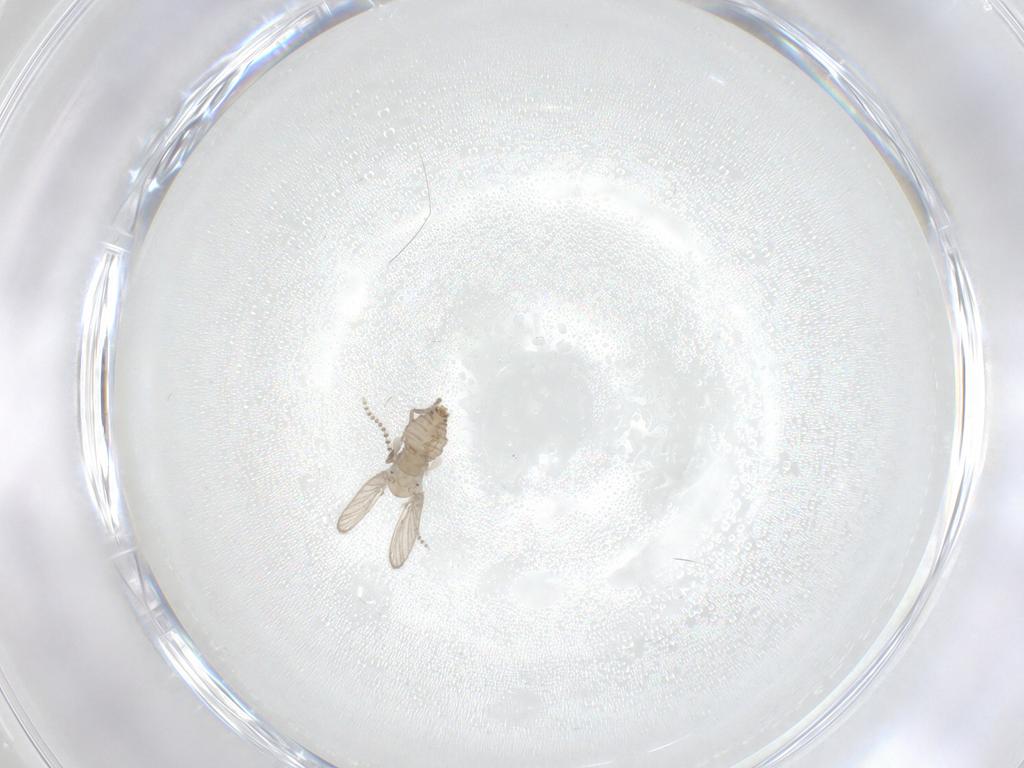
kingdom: Animalia
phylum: Arthropoda
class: Insecta
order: Diptera
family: Psychodidae
